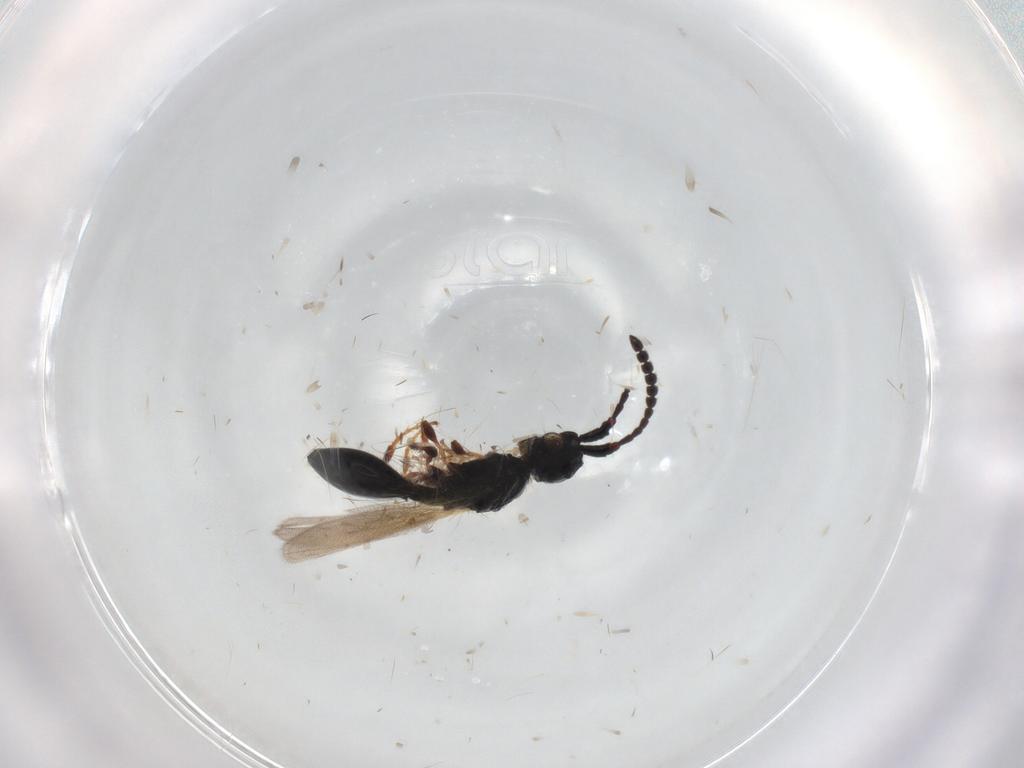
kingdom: Animalia
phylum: Arthropoda
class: Insecta
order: Hymenoptera
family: Diapriidae
